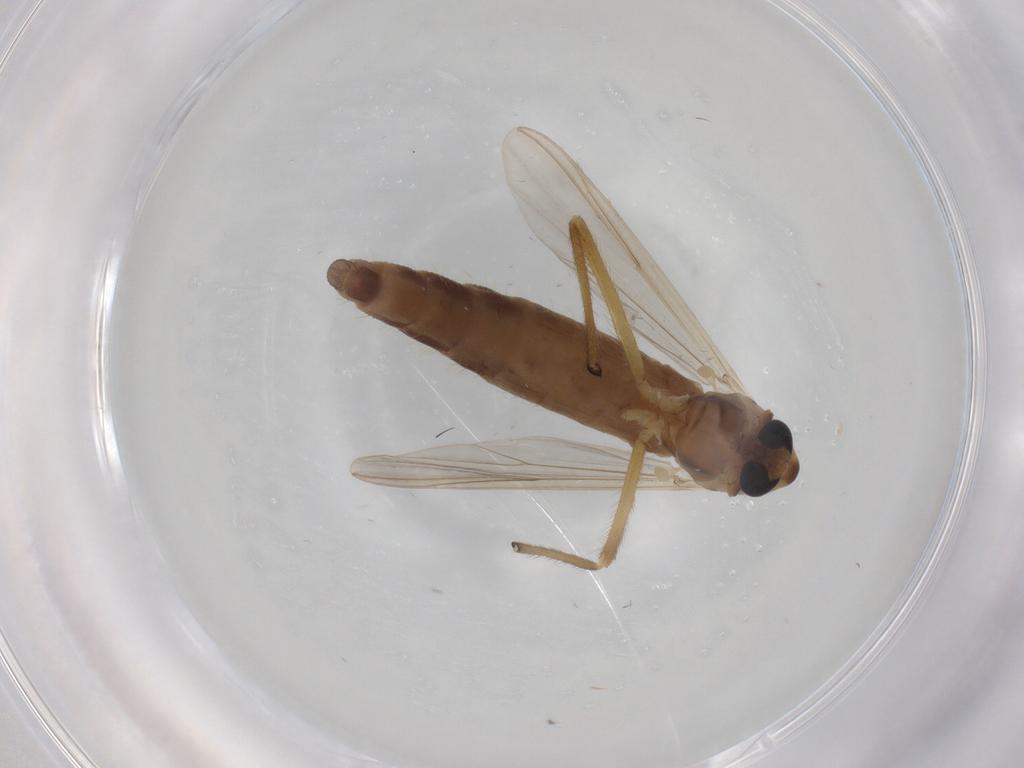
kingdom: Animalia
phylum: Arthropoda
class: Insecta
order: Diptera
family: Chironomidae
